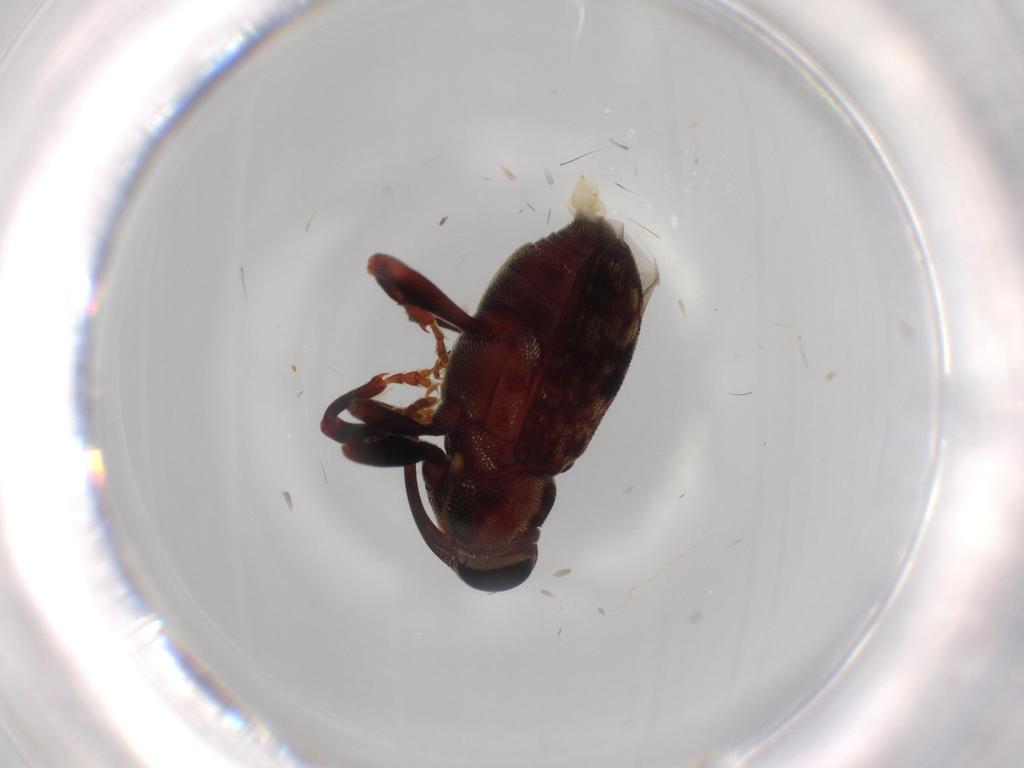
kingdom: Animalia
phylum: Arthropoda
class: Insecta
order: Coleoptera
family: Curculionidae
